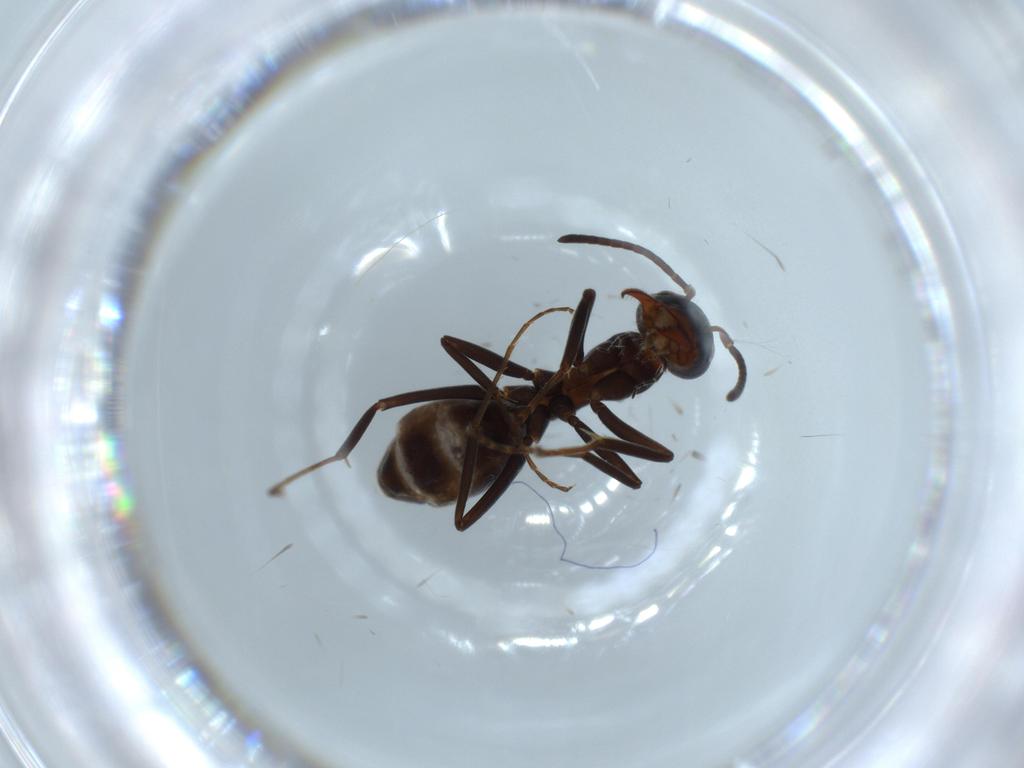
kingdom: Animalia
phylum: Arthropoda
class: Insecta
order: Hymenoptera
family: Formicidae
